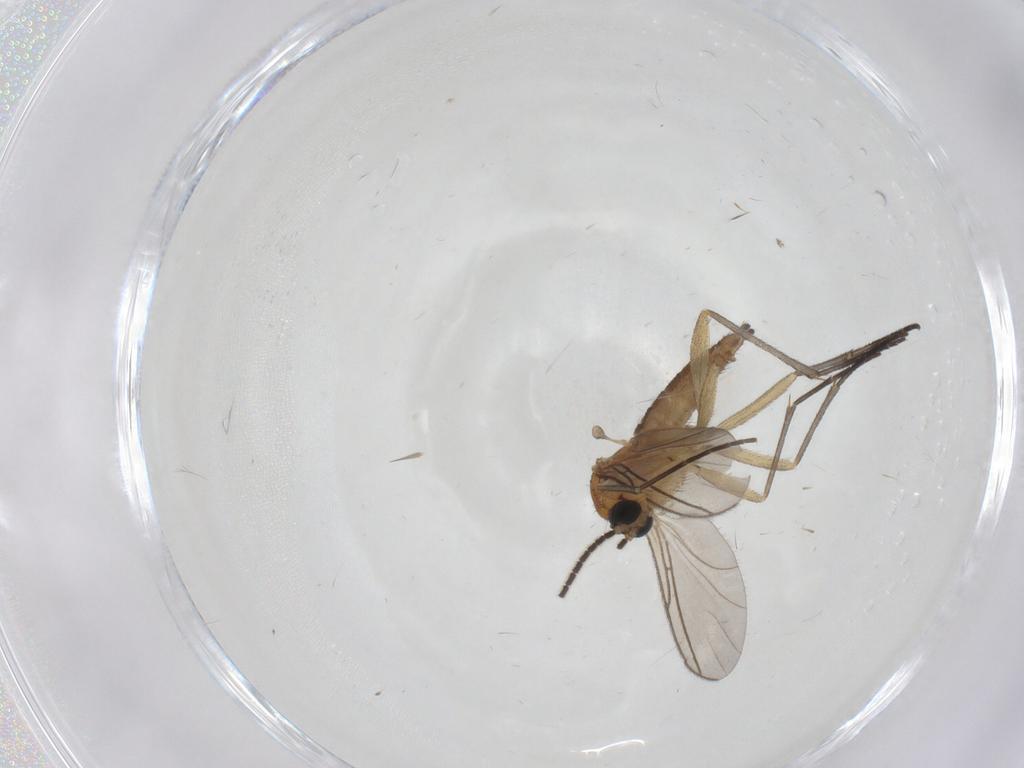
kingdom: Animalia
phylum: Arthropoda
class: Insecta
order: Diptera
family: Sciaridae
